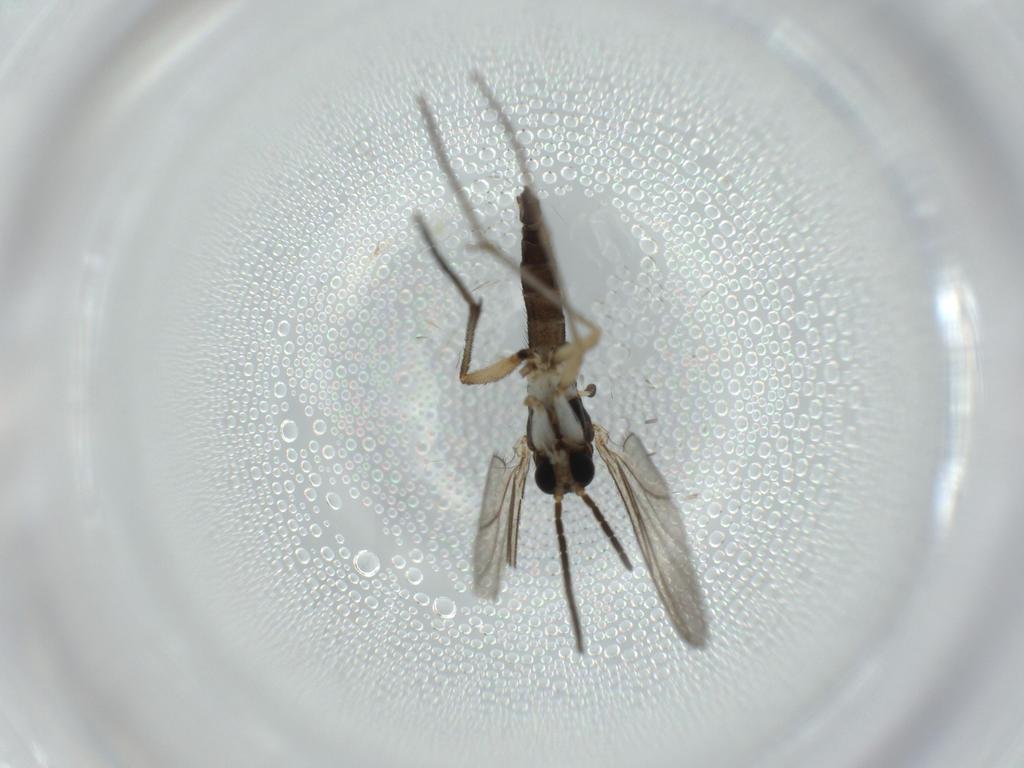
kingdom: Animalia
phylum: Arthropoda
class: Insecta
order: Diptera
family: Sciaridae
